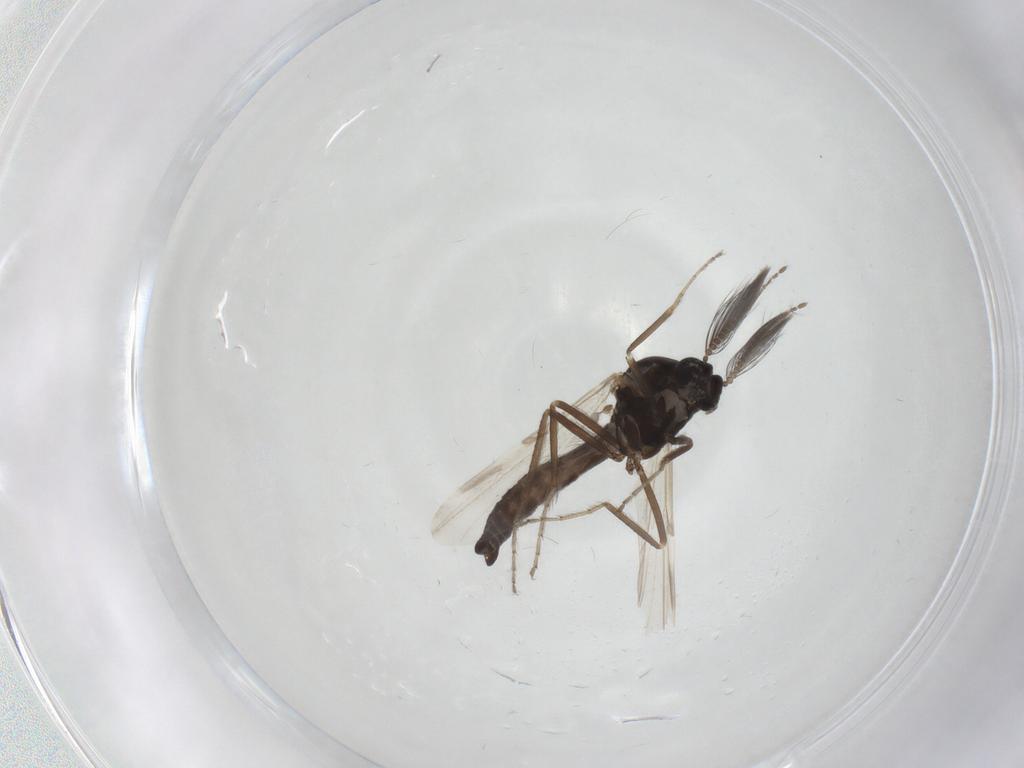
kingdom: Animalia
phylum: Arthropoda
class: Insecta
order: Diptera
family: Ceratopogonidae
